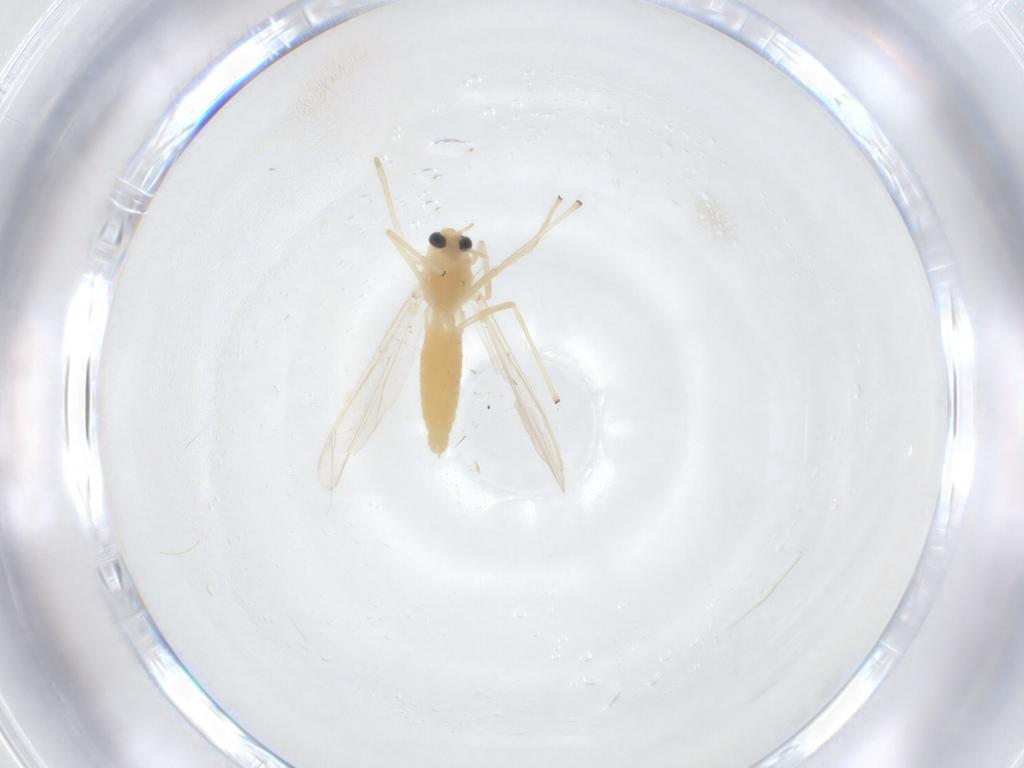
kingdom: Animalia
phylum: Arthropoda
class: Insecta
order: Diptera
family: Chironomidae
